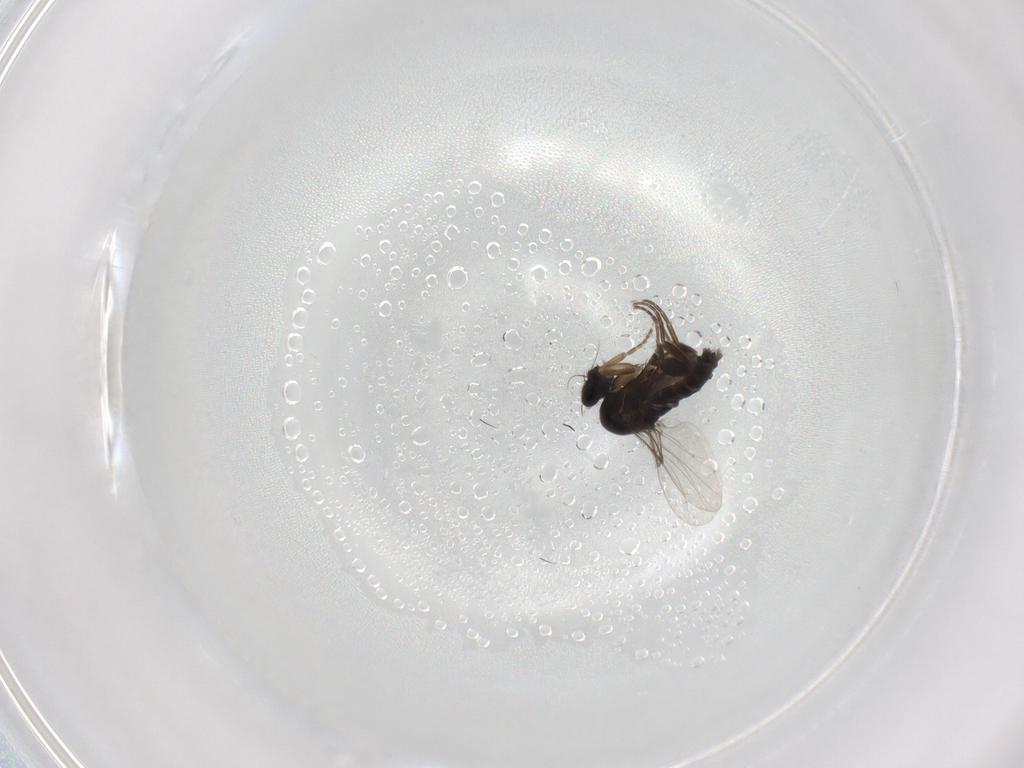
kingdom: Animalia
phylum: Arthropoda
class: Insecta
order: Diptera
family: Phoridae
